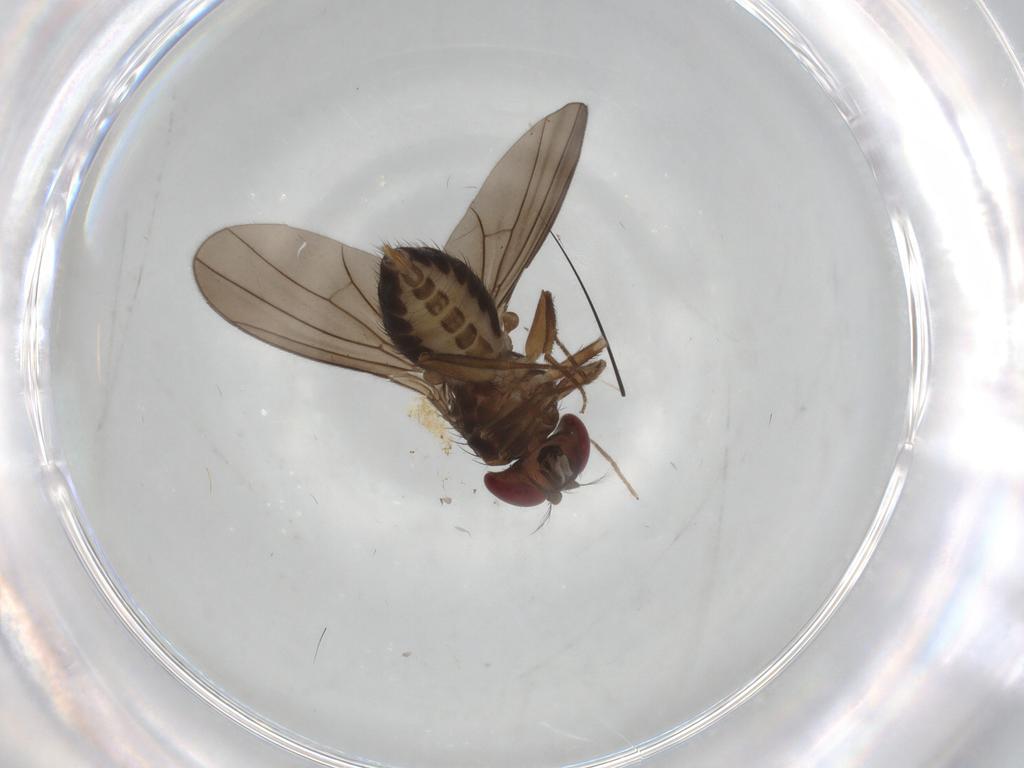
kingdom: Animalia
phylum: Arthropoda
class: Insecta
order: Diptera
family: Drosophilidae
